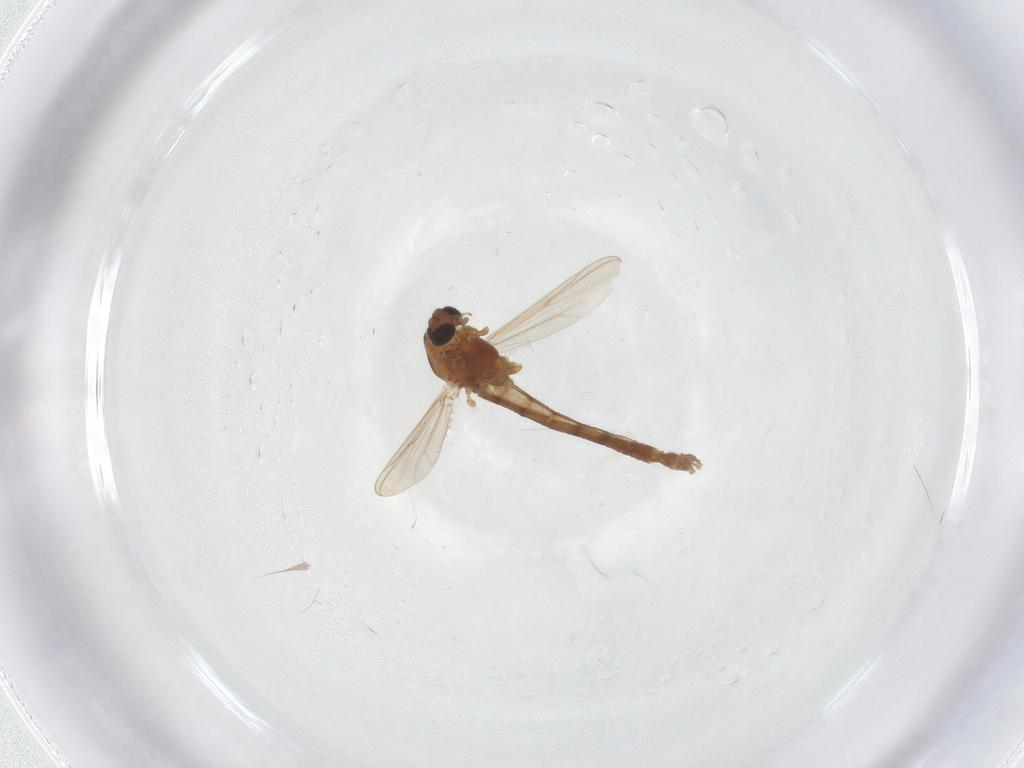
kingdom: Animalia
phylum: Arthropoda
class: Insecta
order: Diptera
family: Chironomidae
